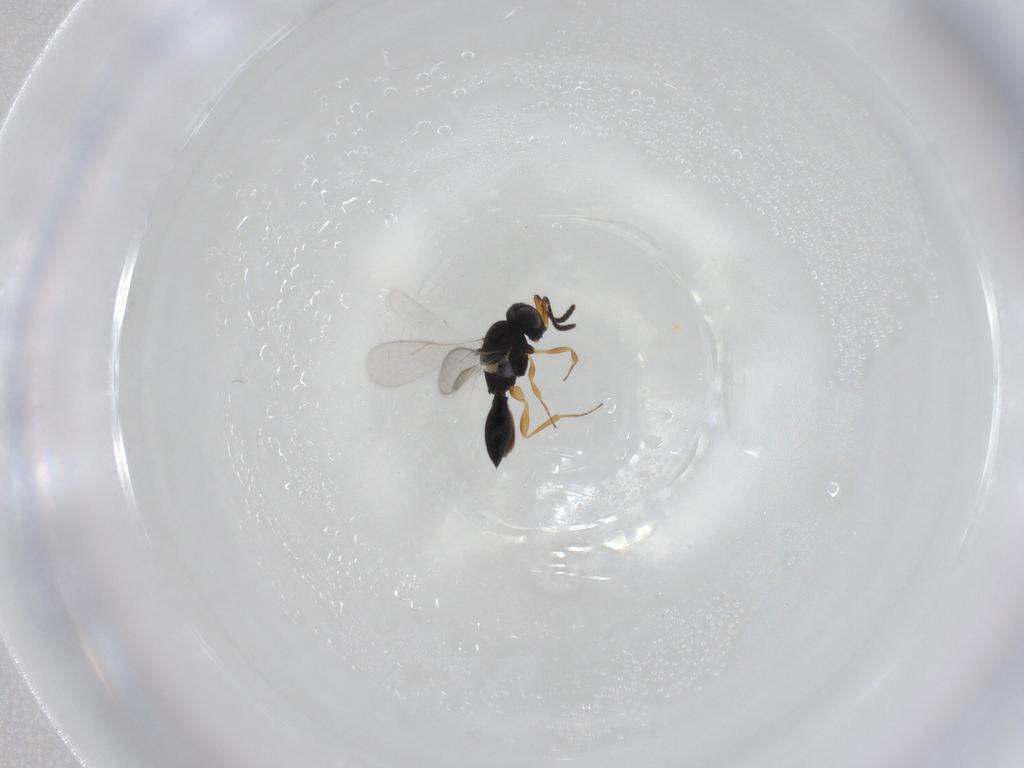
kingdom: Animalia
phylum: Arthropoda
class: Insecta
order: Hymenoptera
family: Scelionidae
